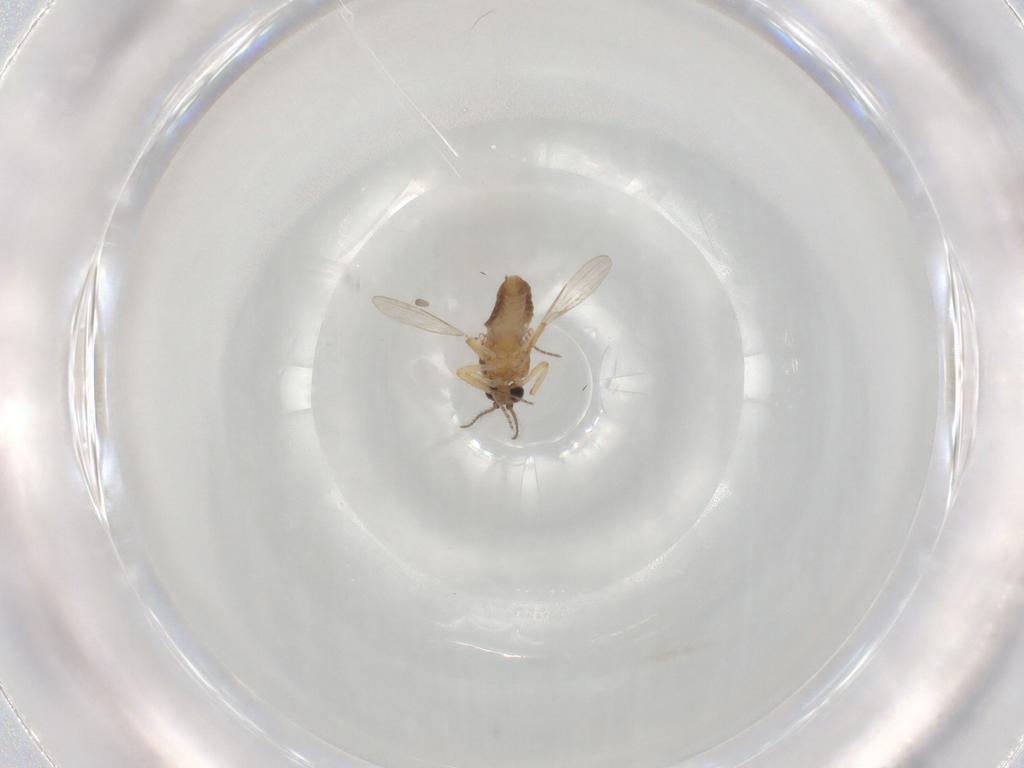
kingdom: Animalia
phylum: Arthropoda
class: Insecta
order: Diptera
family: Ceratopogonidae
